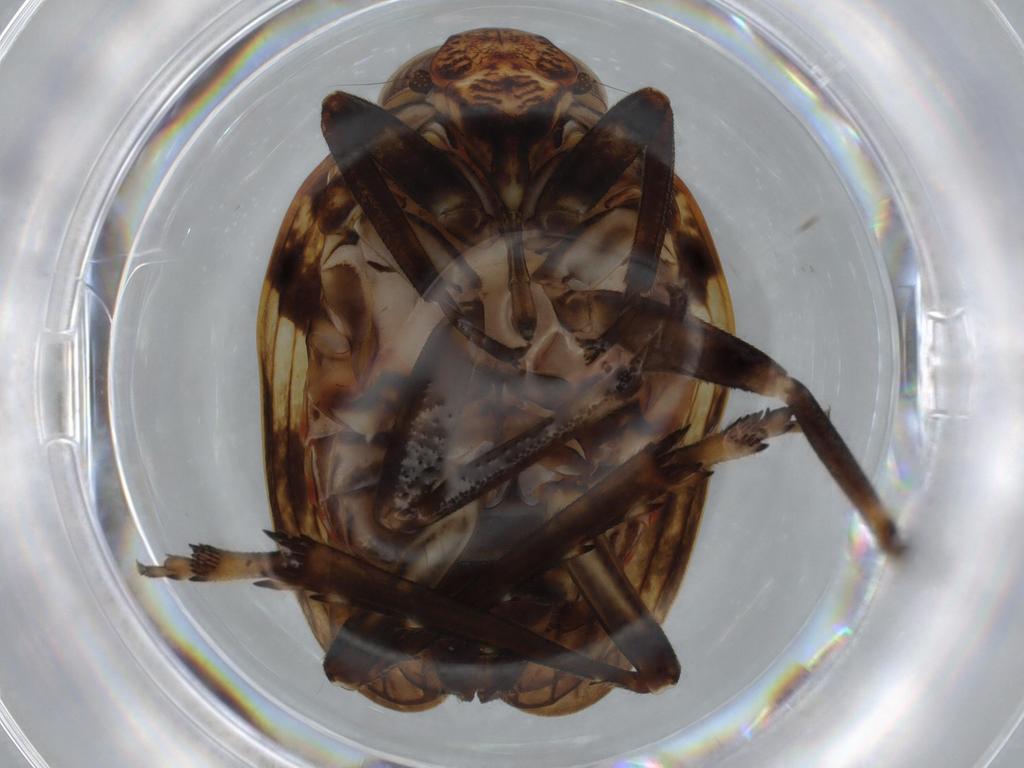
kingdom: Animalia
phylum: Arthropoda
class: Insecta
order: Hemiptera
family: Issidae
